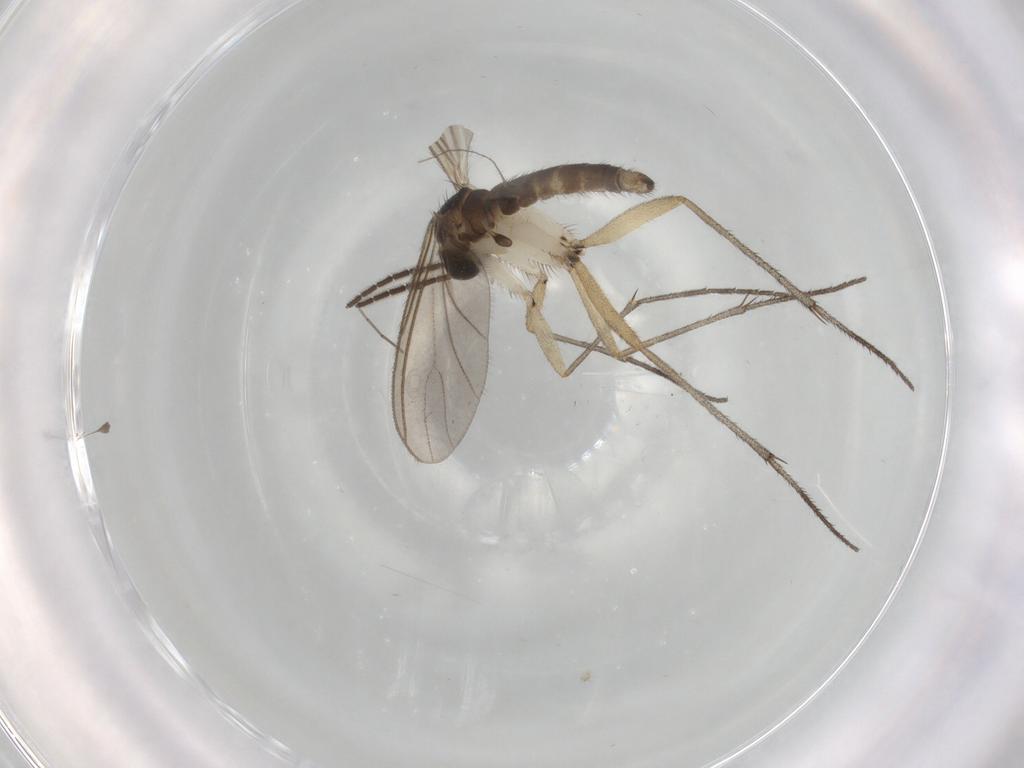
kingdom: Animalia
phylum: Arthropoda
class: Insecta
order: Diptera
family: Sciaridae
